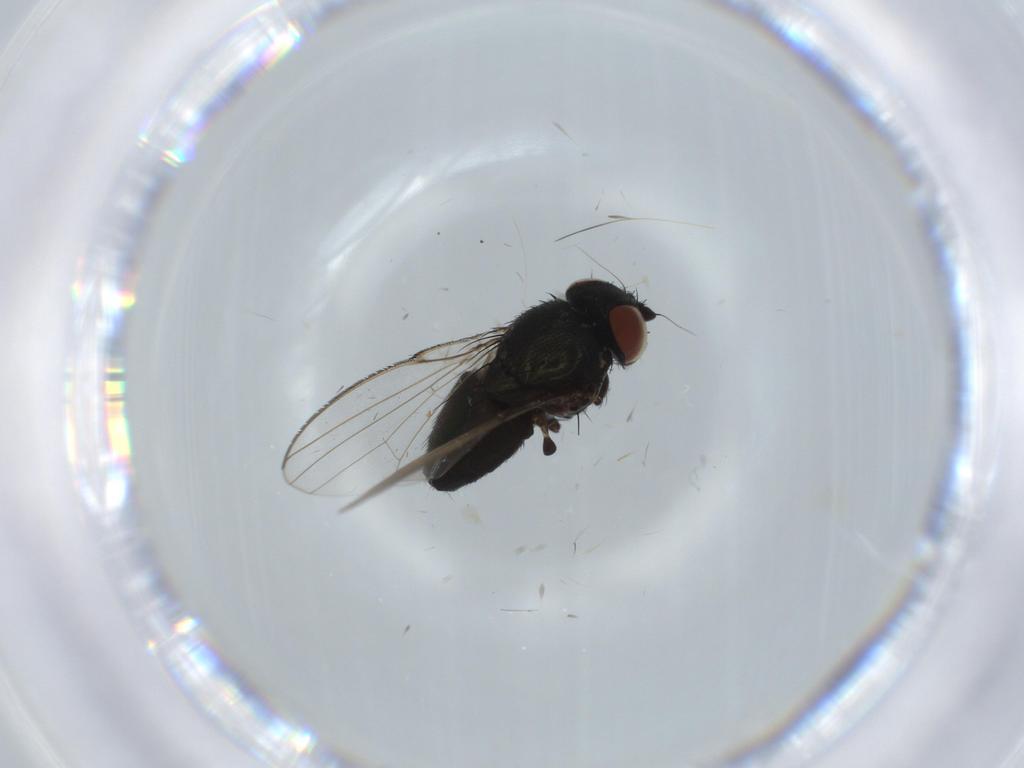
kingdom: Animalia
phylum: Arthropoda
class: Insecta
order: Diptera
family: Milichiidae
